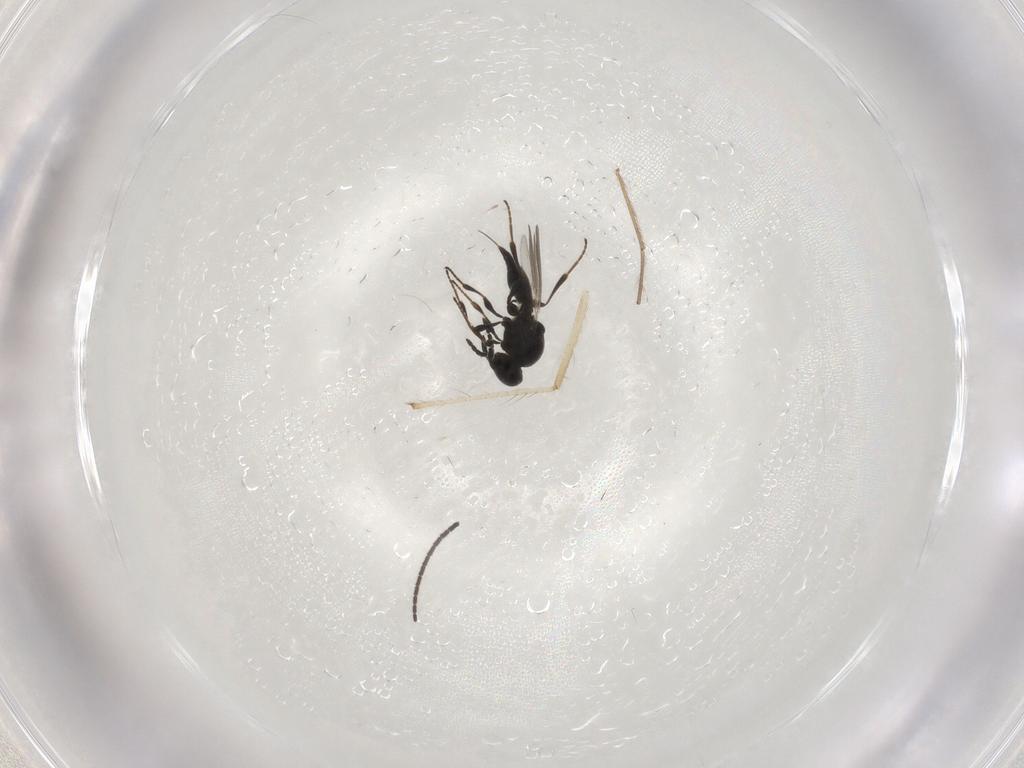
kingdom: Animalia
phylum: Arthropoda
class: Insecta
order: Hymenoptera
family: Platygastridae
